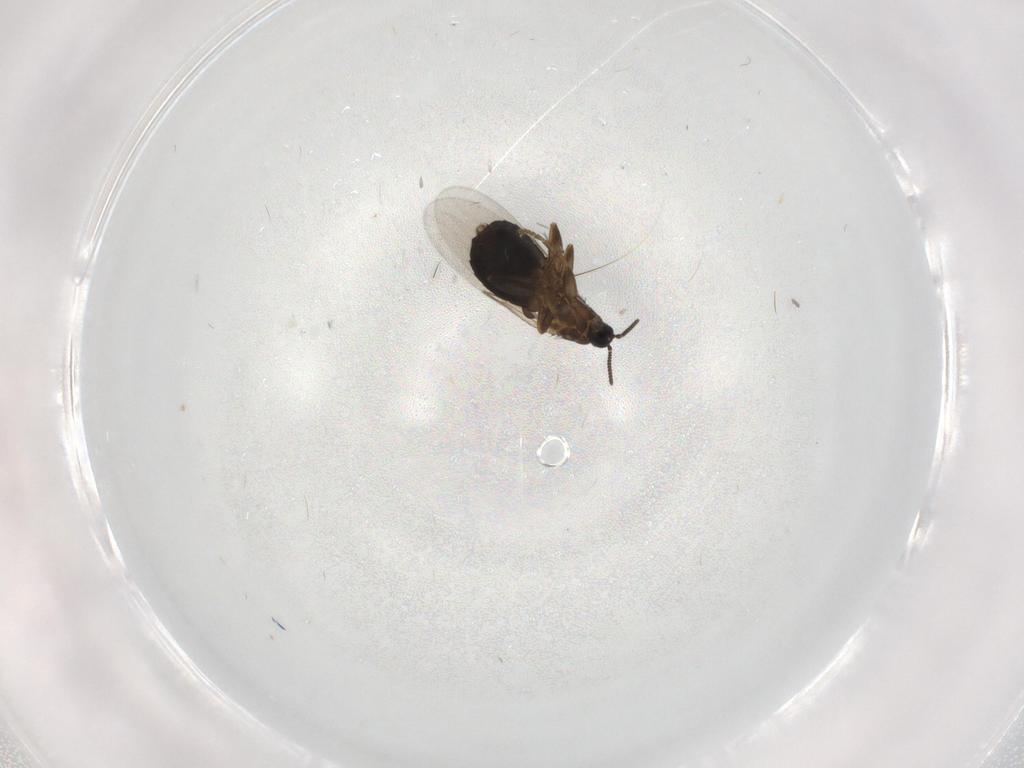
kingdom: Animalia
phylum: Arthropoda
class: Insecta
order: Diptera
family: Scatopsidae
